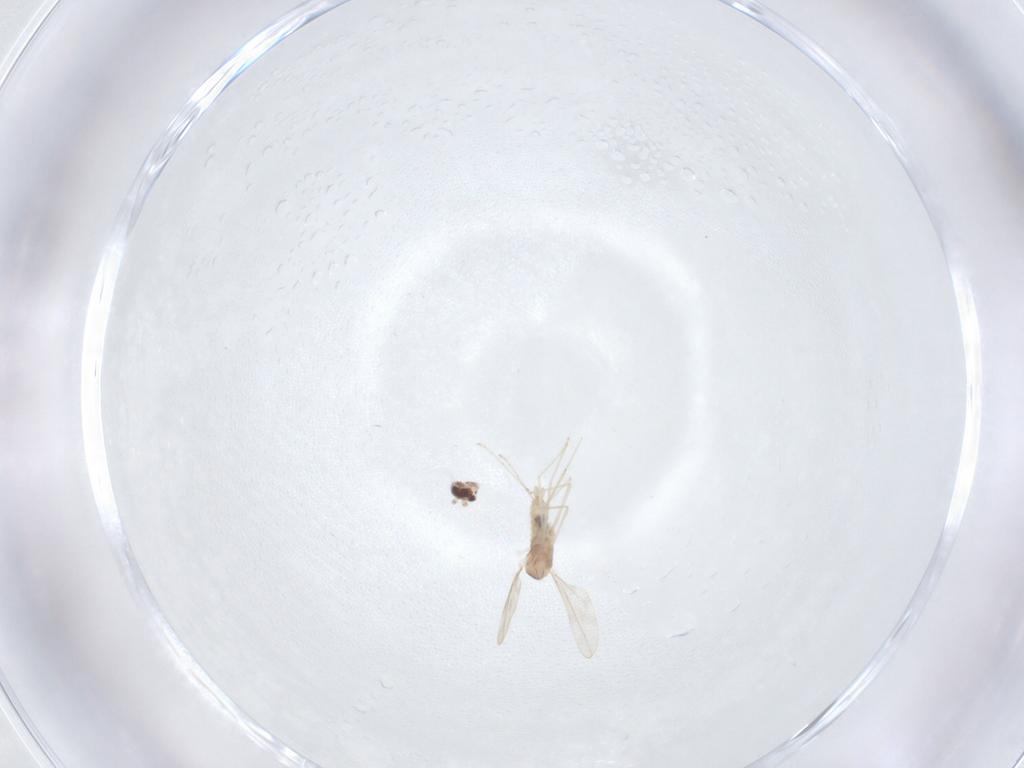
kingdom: Animalia
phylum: Arthropoda
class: Insecta
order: Diptera
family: Cecidomyiidae
